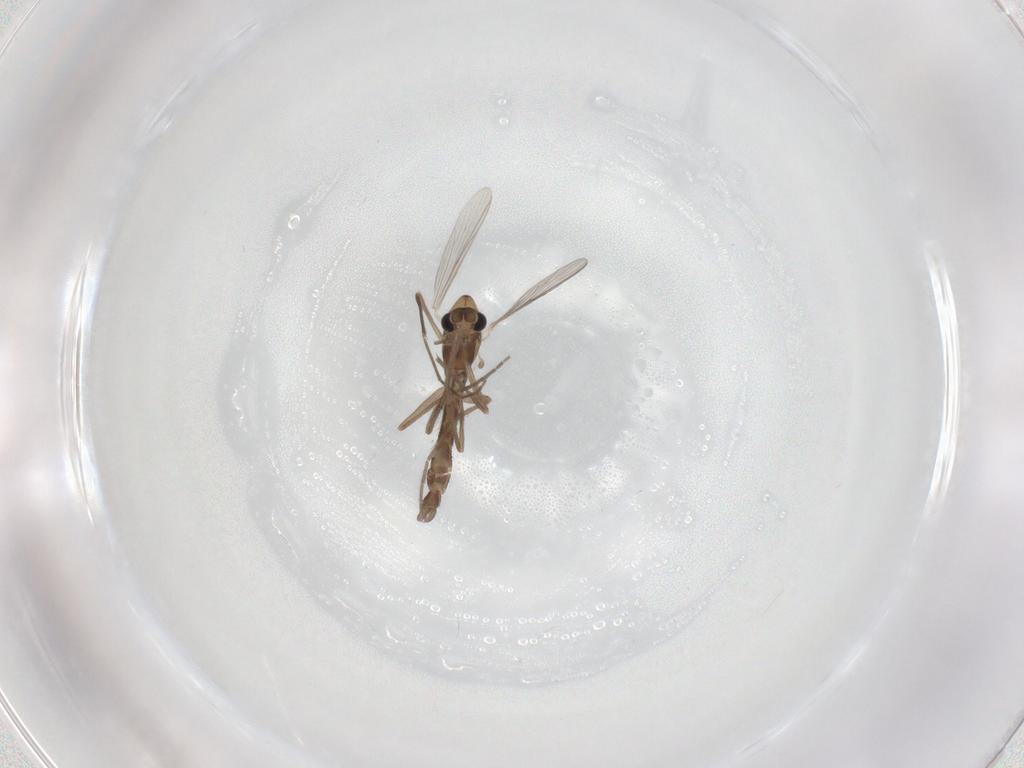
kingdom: Animalia
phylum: Arthropoda
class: Insecta
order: Diptera
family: Chironomidae
